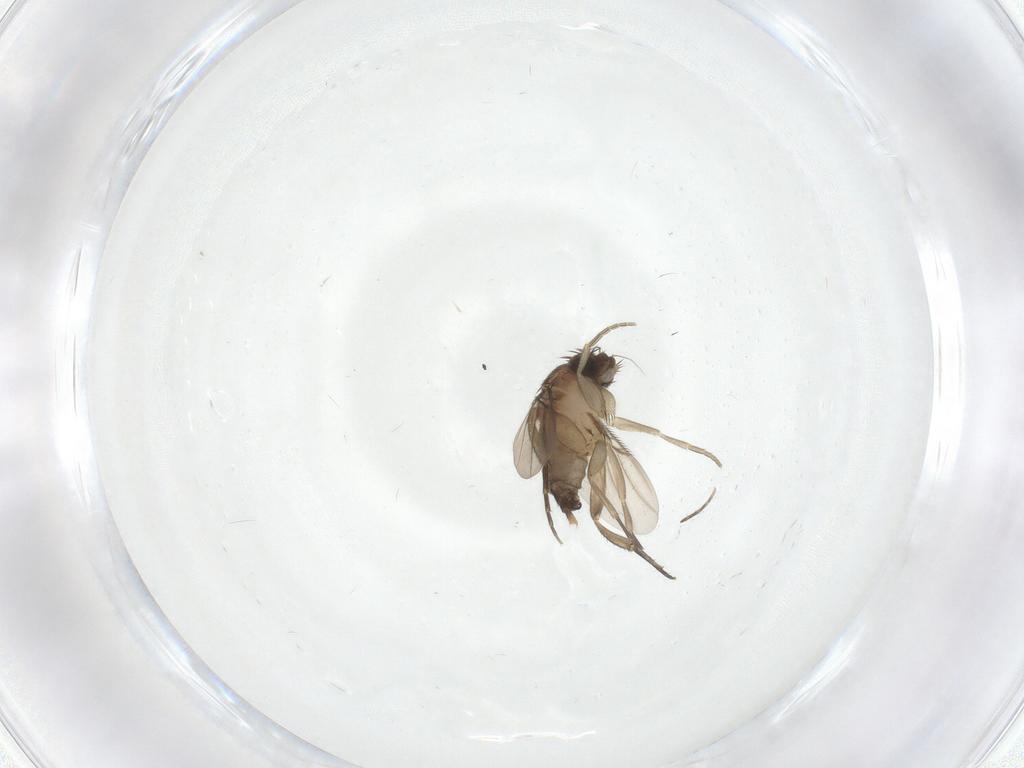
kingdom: Animalia
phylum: Arthropoda
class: Insecta
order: Diptera
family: Phoridae
